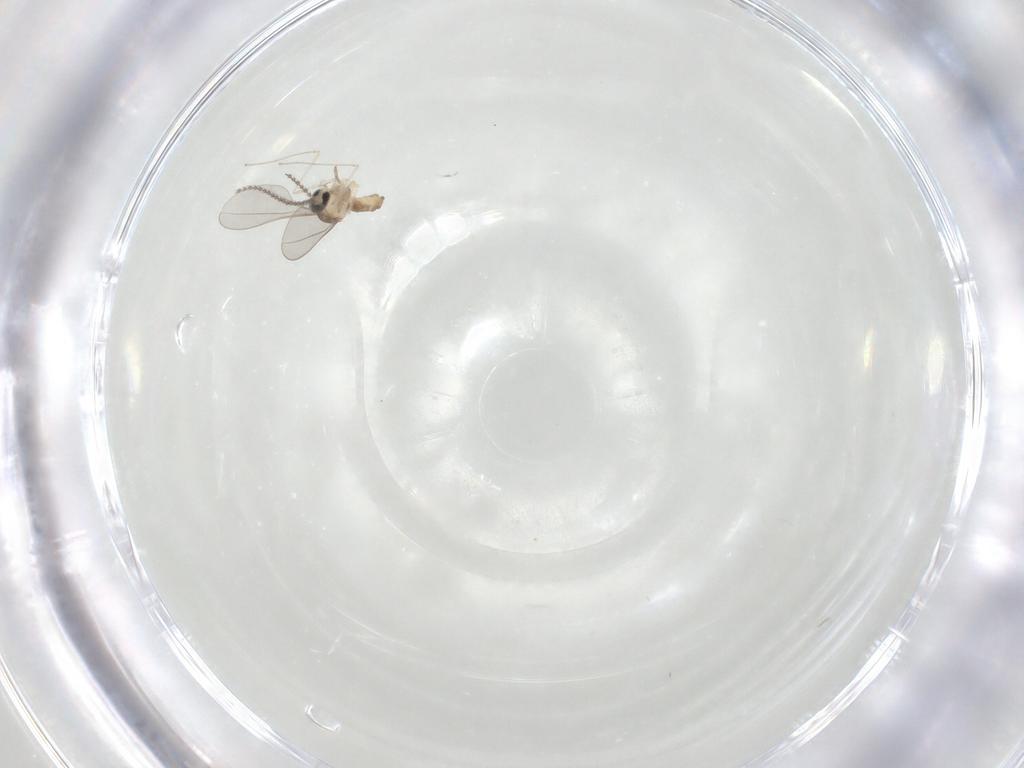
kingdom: Animalia
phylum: Arthropoda
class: Insecta
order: Diptera
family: Cecidomyiidae
